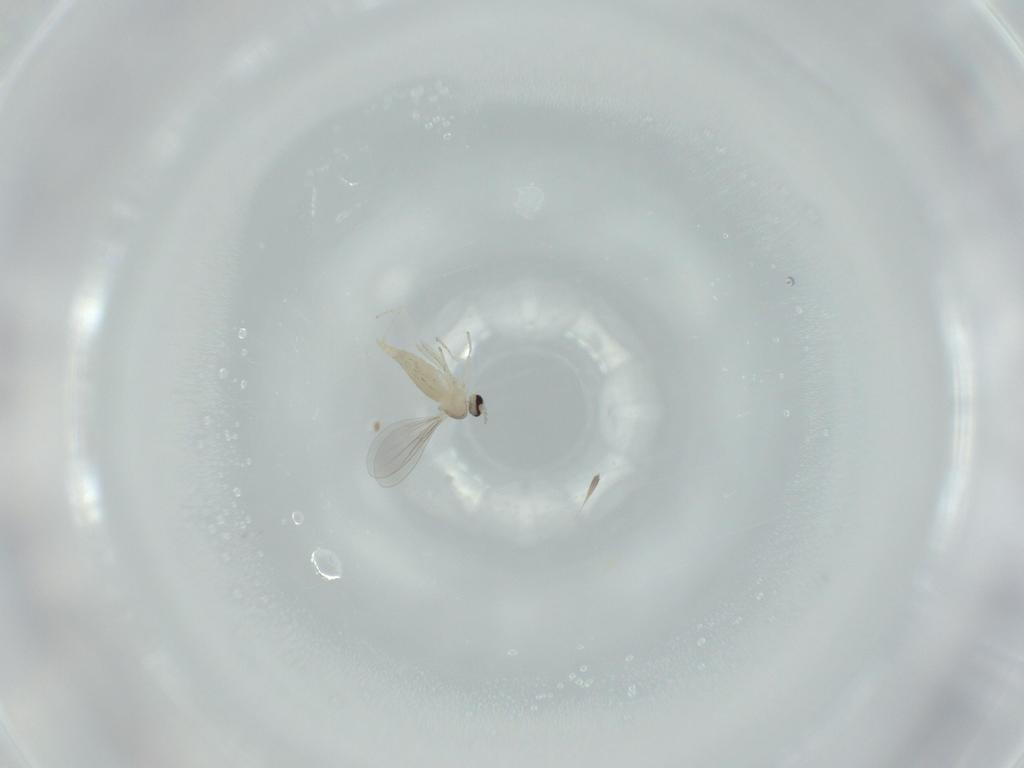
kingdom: Animalia
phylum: Arthropoda
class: Insecta
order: Diptera
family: Cecidomyiidae
